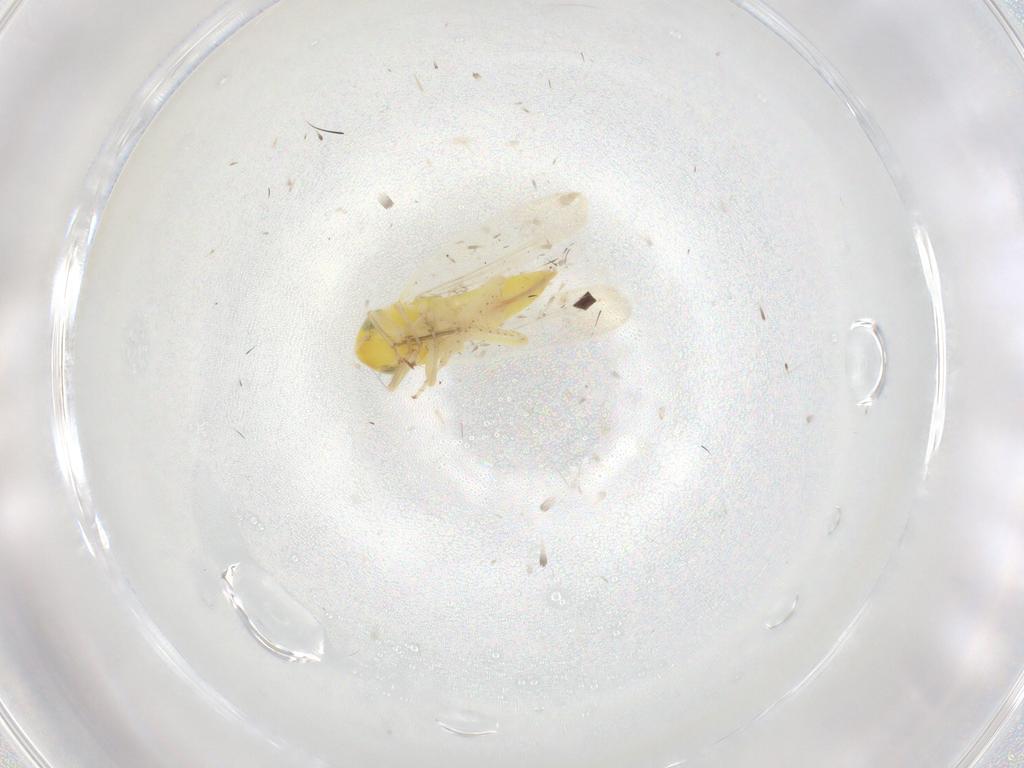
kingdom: Animalia
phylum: Arthropoda
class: Insecta
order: Hemiptera
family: Cicadellidae
